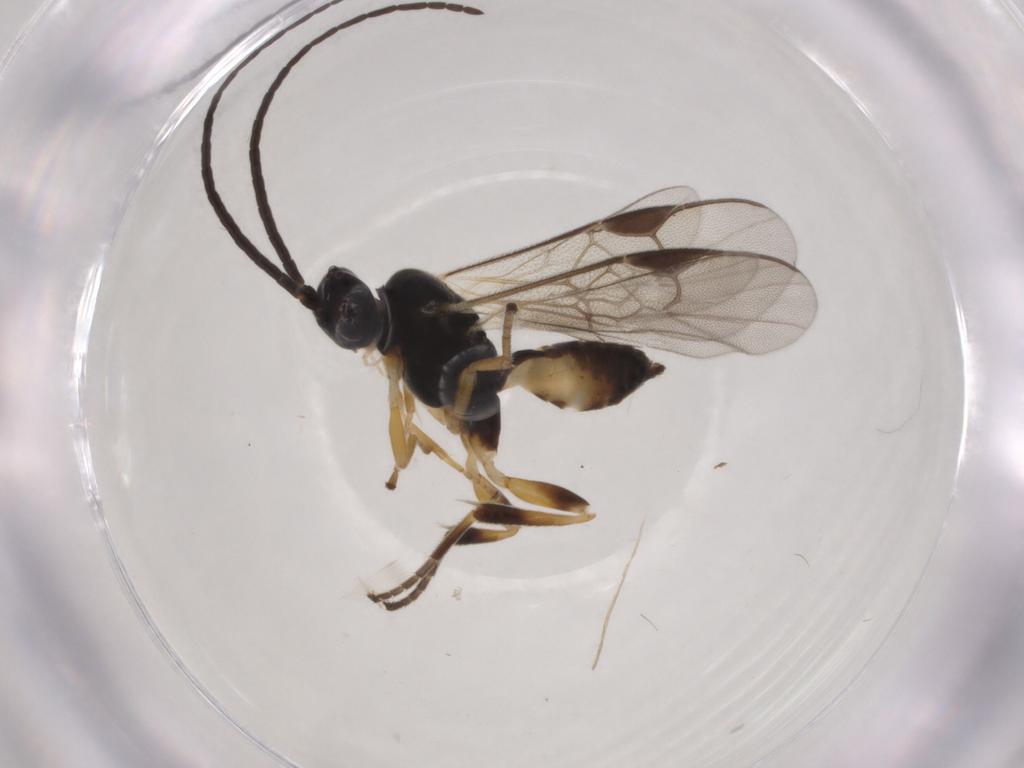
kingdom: Animalia
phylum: Arthropoda
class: Insecta
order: Hymenoptera
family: Braconidae
